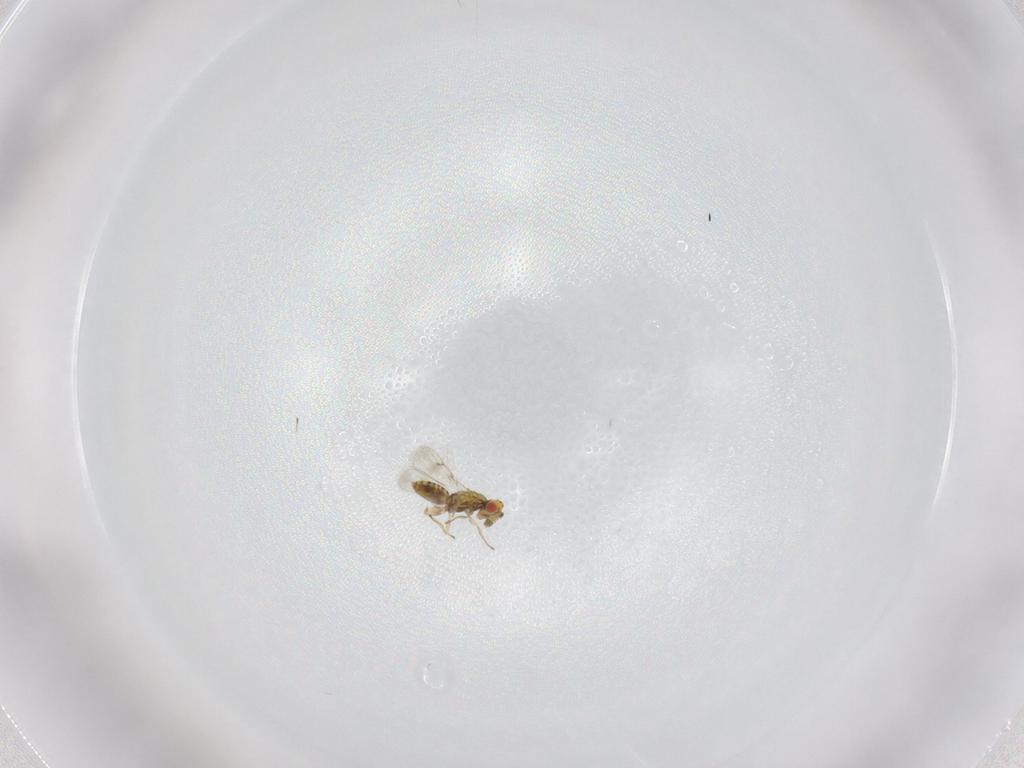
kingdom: Animalia
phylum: Arthropoda
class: Insecta
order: Hymenoptera
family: Eulophidae
